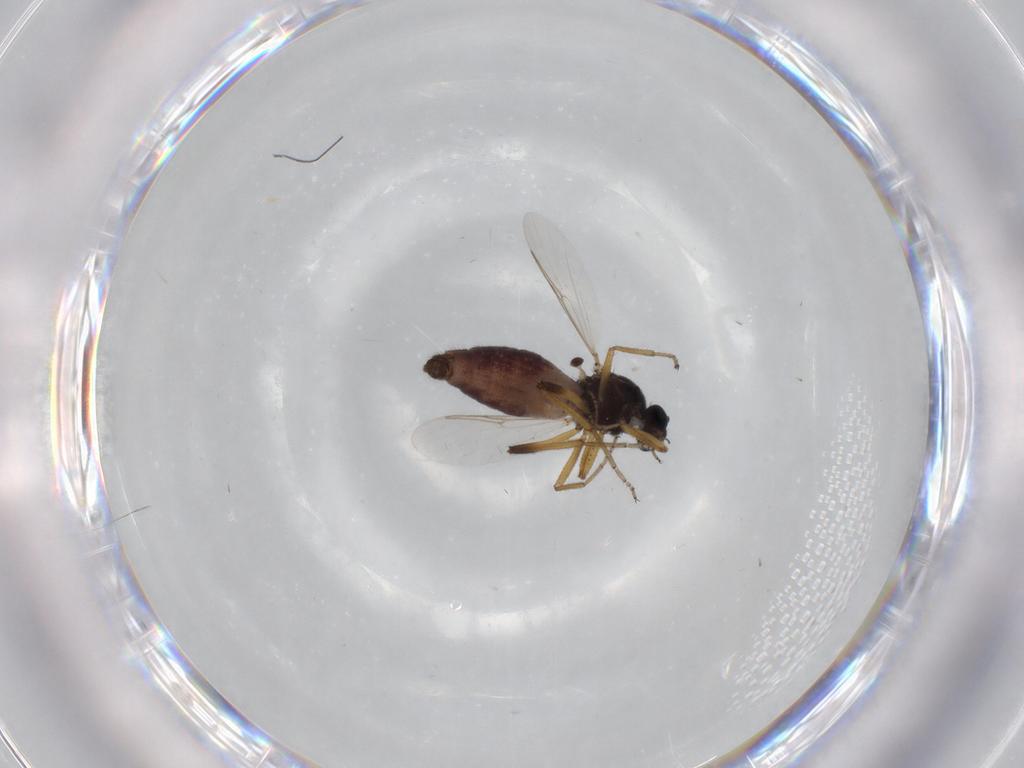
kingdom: Animalia
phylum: Arthropoda
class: Insecta
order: Diptera
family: Ceratopogonidae
